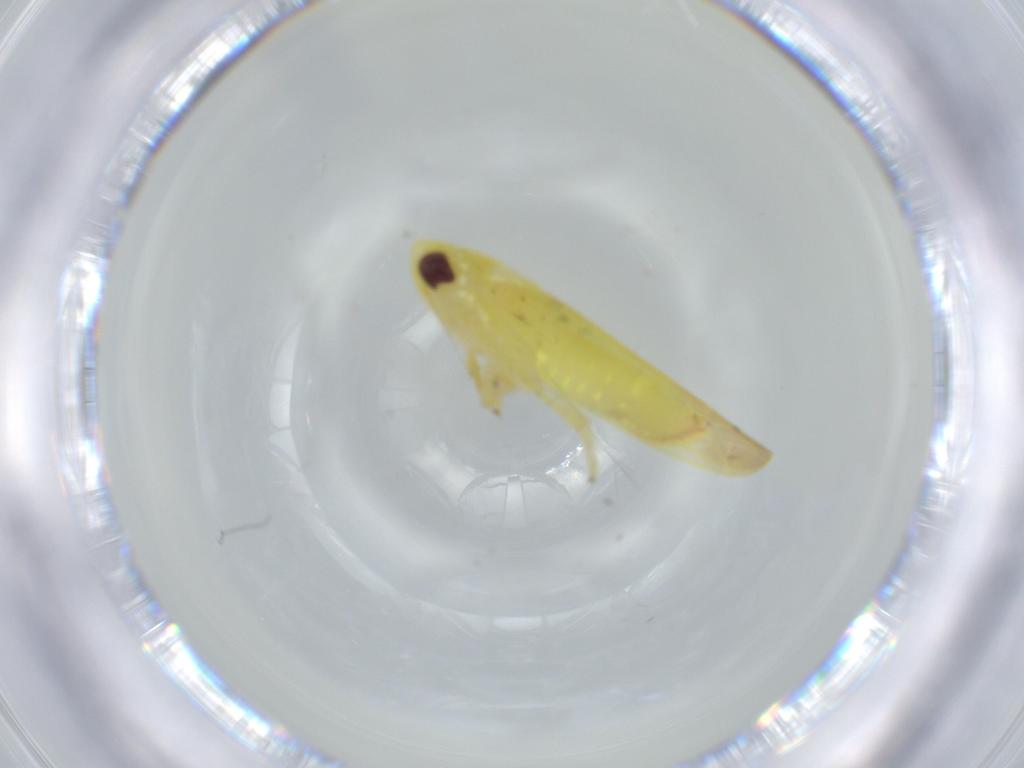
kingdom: Animalia
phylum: Arthropoda
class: Insecta
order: Hemiptera
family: Cicadellidae
